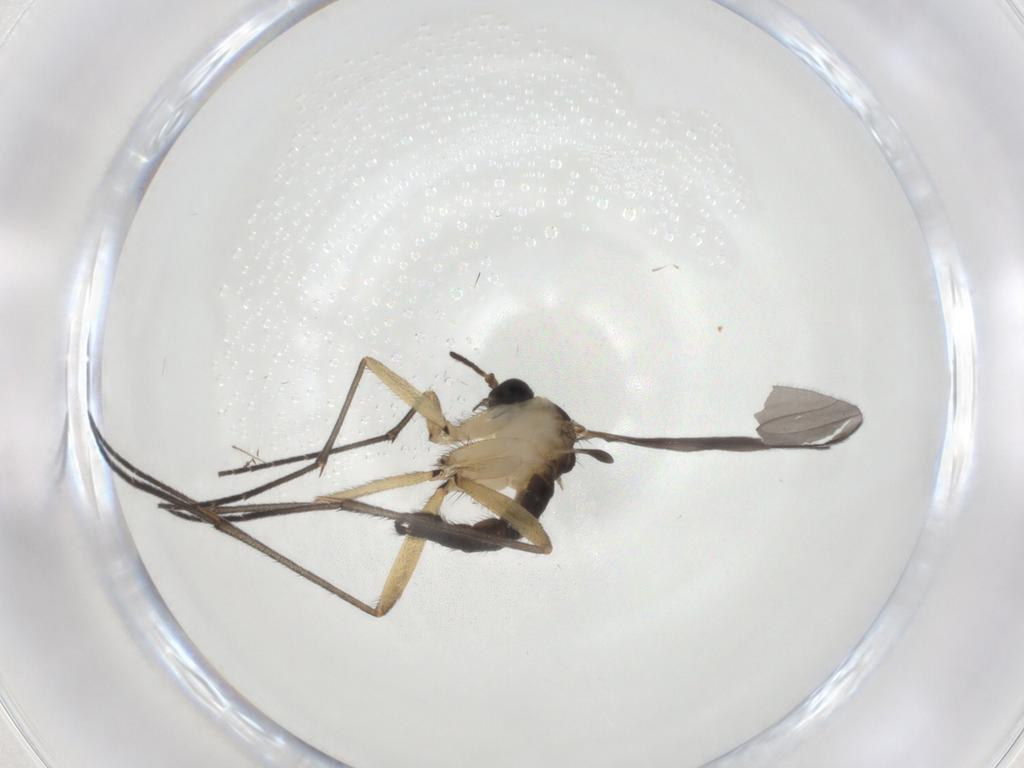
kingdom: Animalia
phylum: Arthropoda
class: Insecta
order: Diptera
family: Sciaridae
